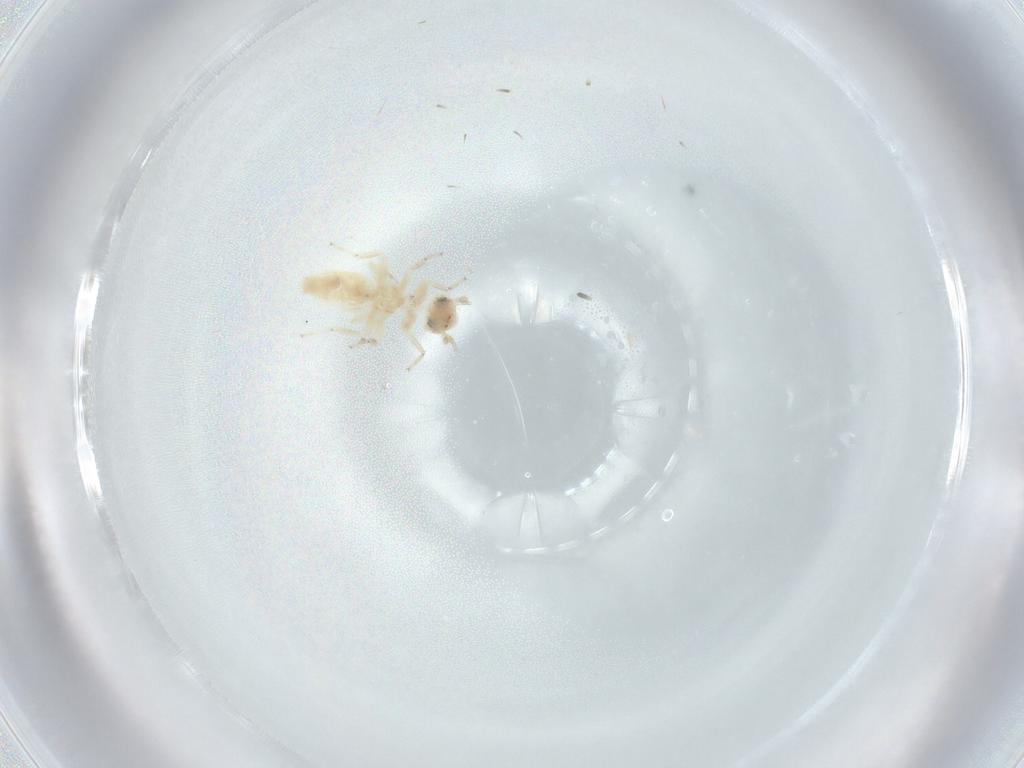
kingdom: Animalia
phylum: Arthropoda
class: Insecta
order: Psocodea
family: Lepidopsocidae
